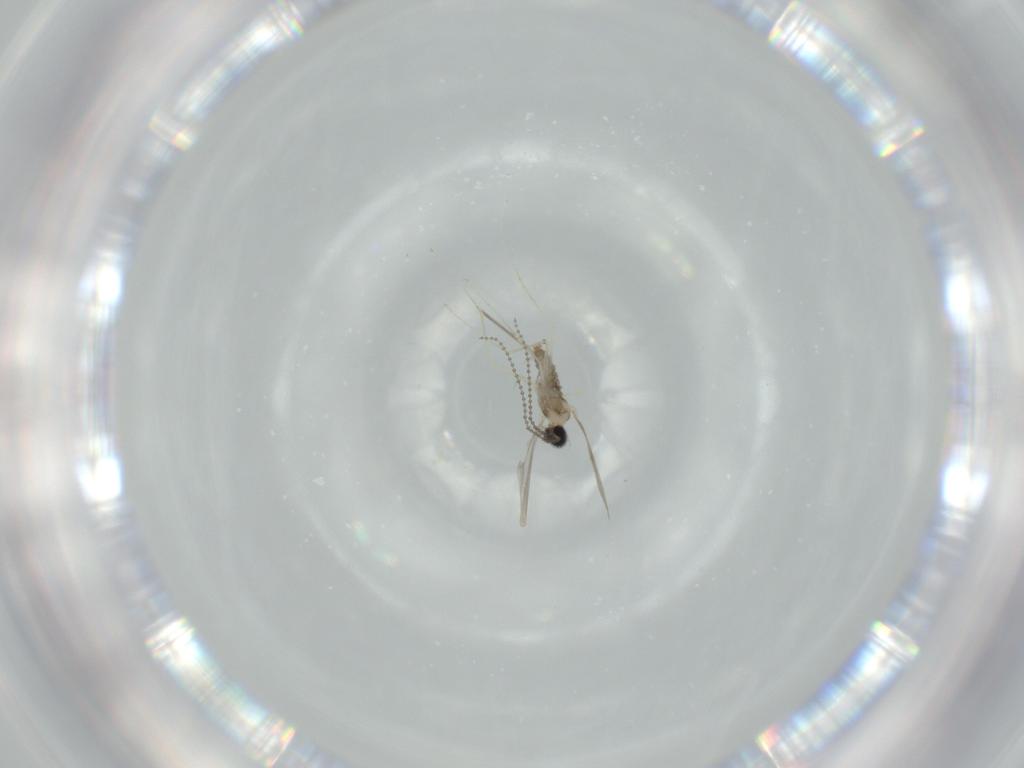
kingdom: Animalia
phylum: Arthropoda
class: Insecta
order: Diptera
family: Cecidomyiidae
